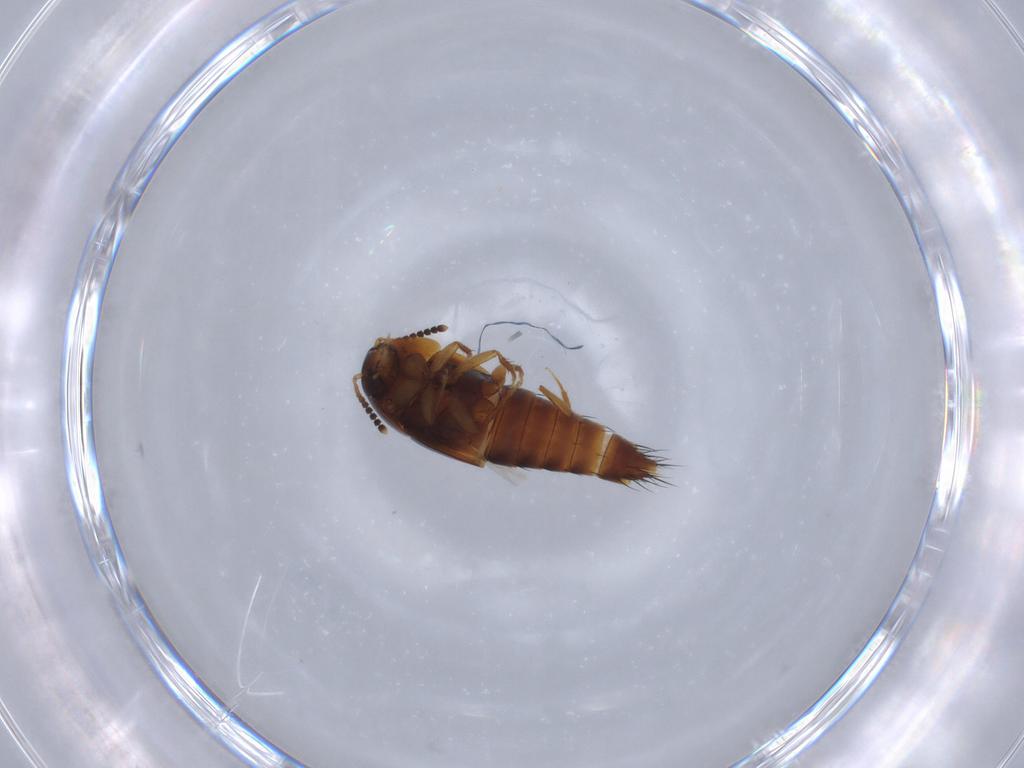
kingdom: Animalia
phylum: Arthropoda
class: Insecta
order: Coleoptera
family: Staphylinidae
